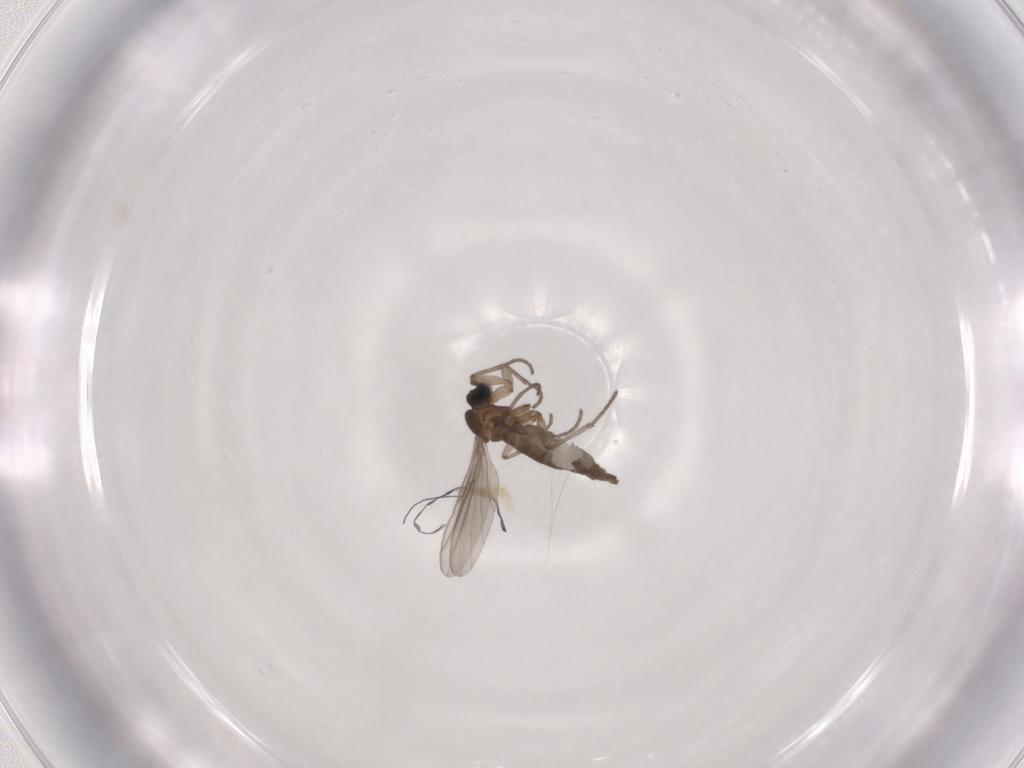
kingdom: Animalia
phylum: Arthropoda
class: Insecta
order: Diptera
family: Sciaridae
